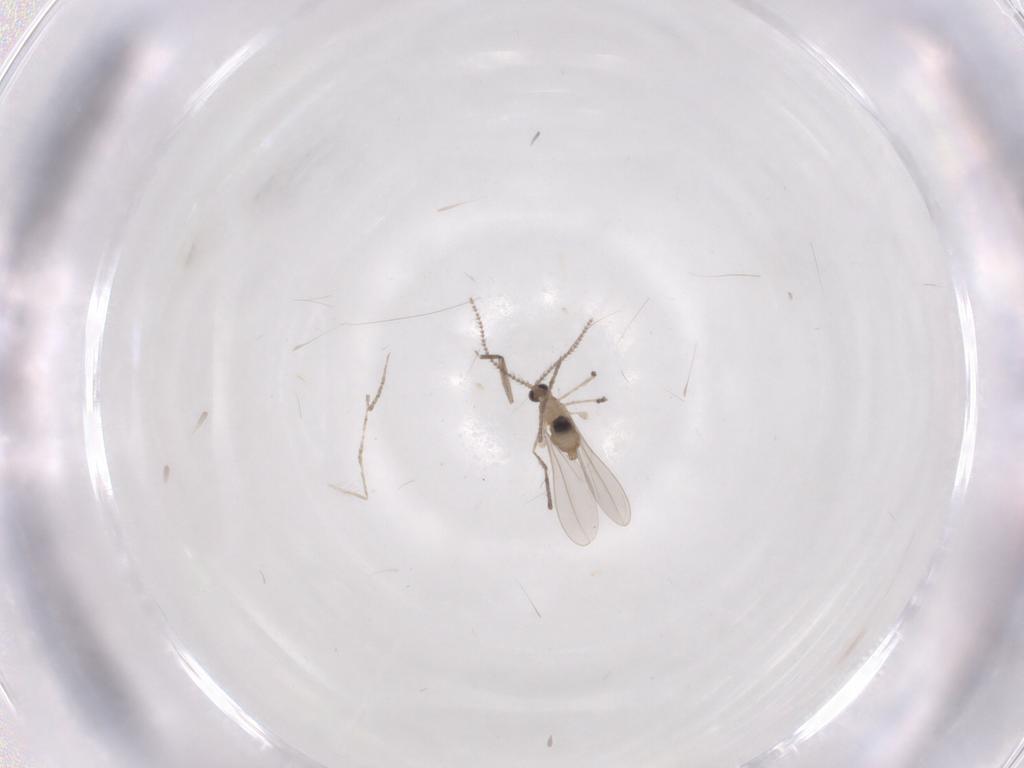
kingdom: Animalia
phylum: Arthropoda
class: Insecta
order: Diptera
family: Cecidomyiidae
